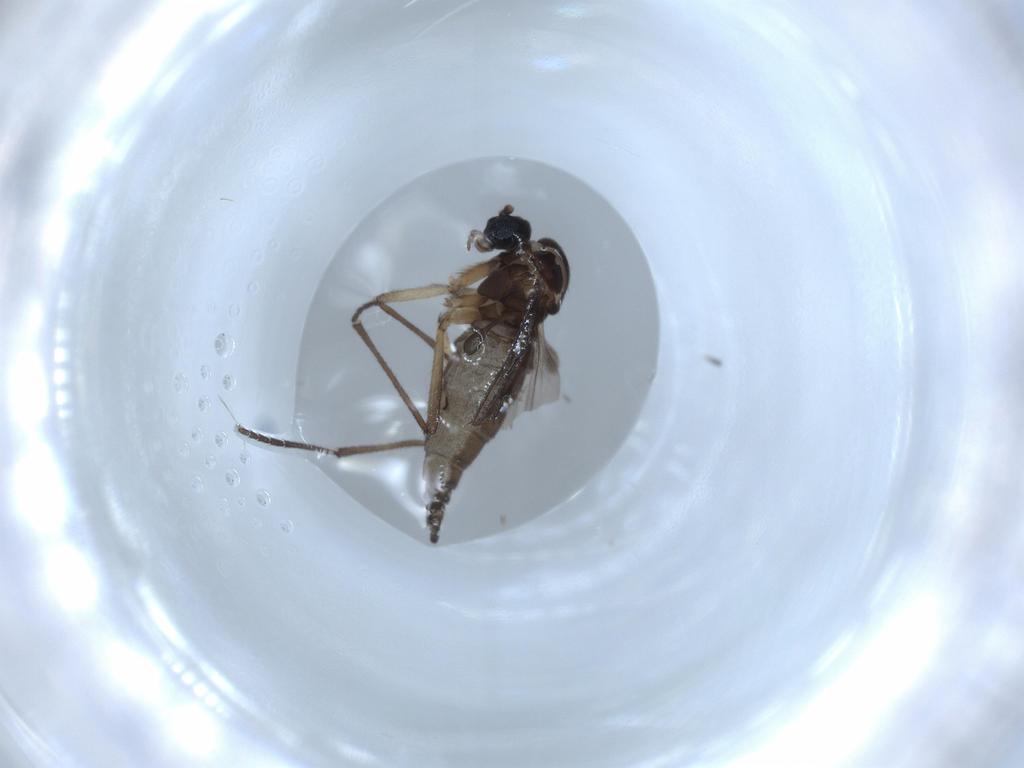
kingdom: Animalia
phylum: Arthropoda
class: Insecta
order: Diptera
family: Sciaridae
